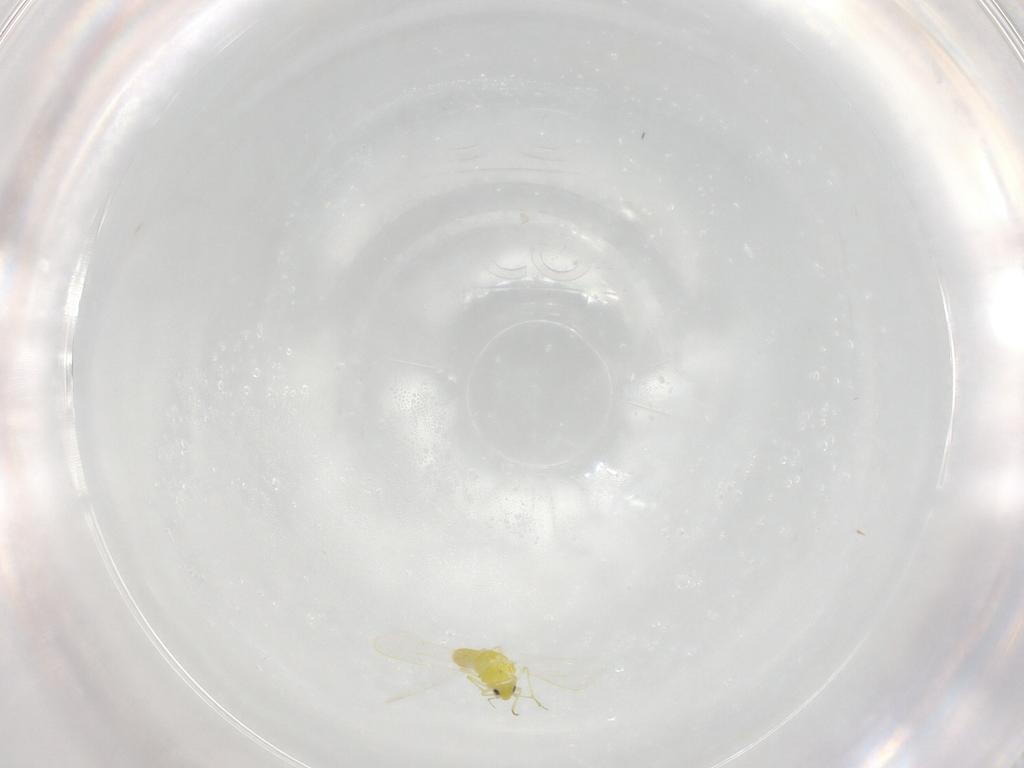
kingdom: Animalia
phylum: Arthropoda
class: Insecta
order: Hemiptera
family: Aleyrodidae
